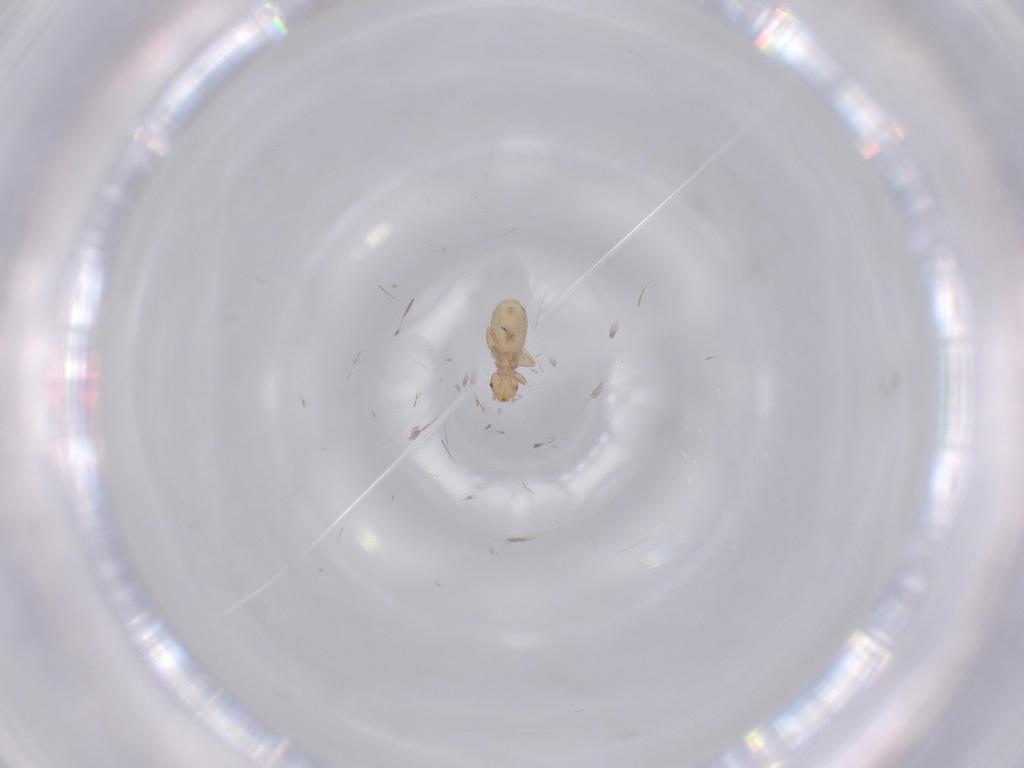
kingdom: Animalia
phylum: Arthropoda
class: Insecta
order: Psocodea
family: Liposcelididae
